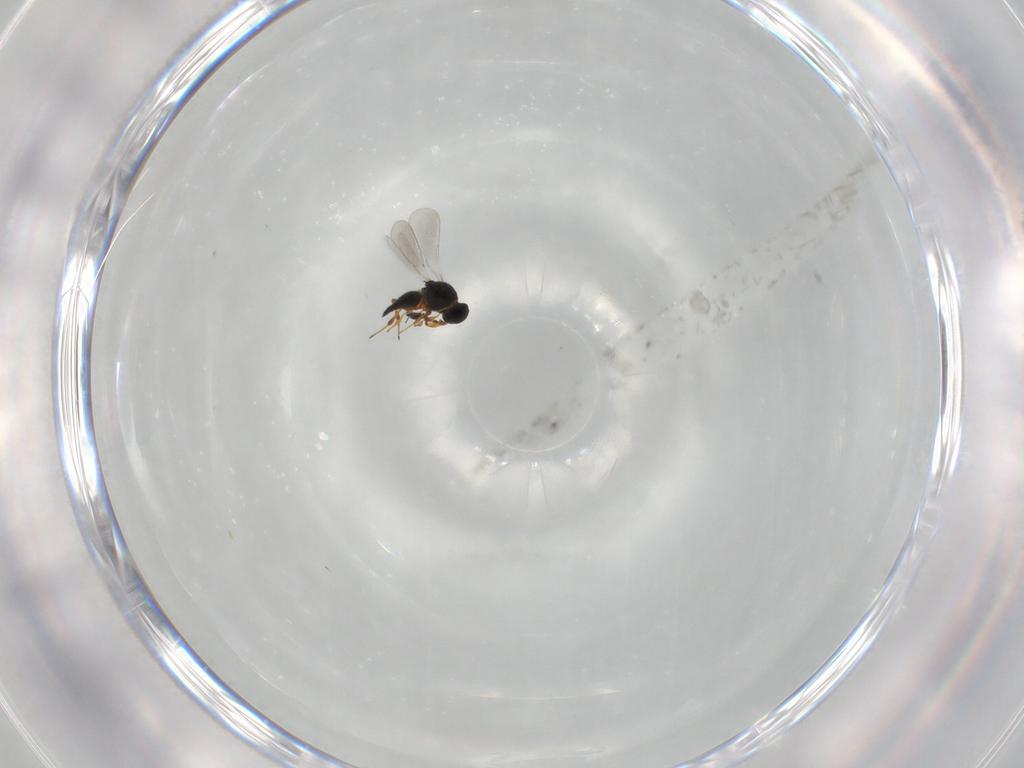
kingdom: Animalia
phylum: Arthropoda
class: Insecta
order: Hymenoptera
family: Platygastridae
